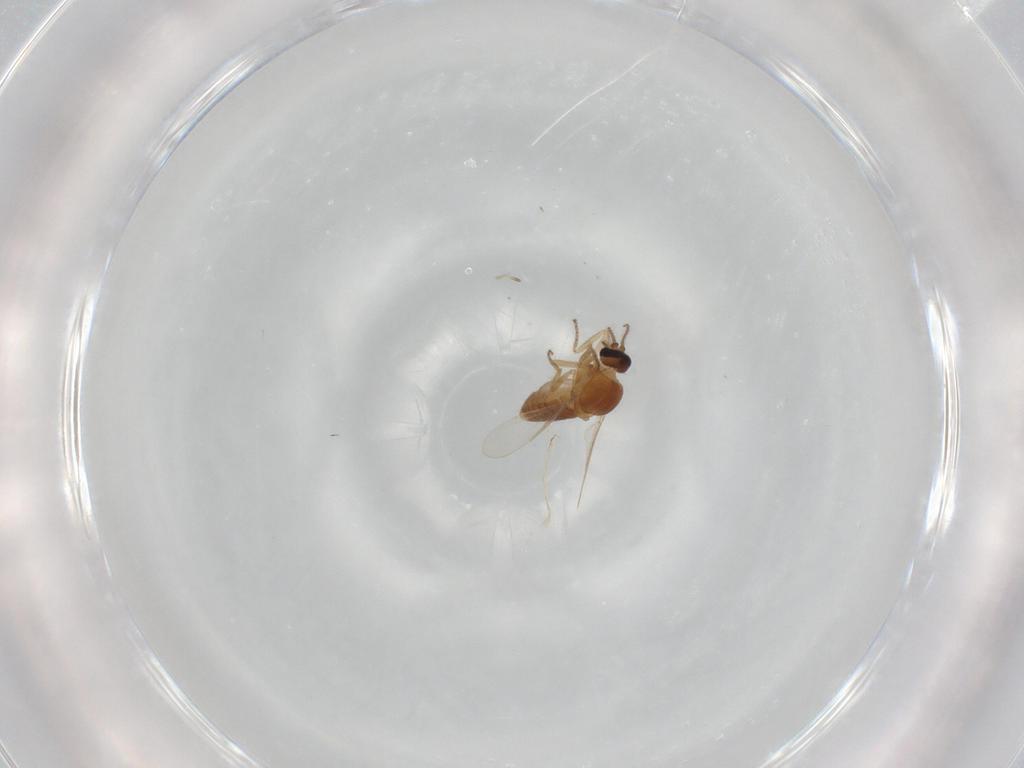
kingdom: Animalia
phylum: Arthropoda
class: Insecta
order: Diptera
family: Ceratopogonidae
